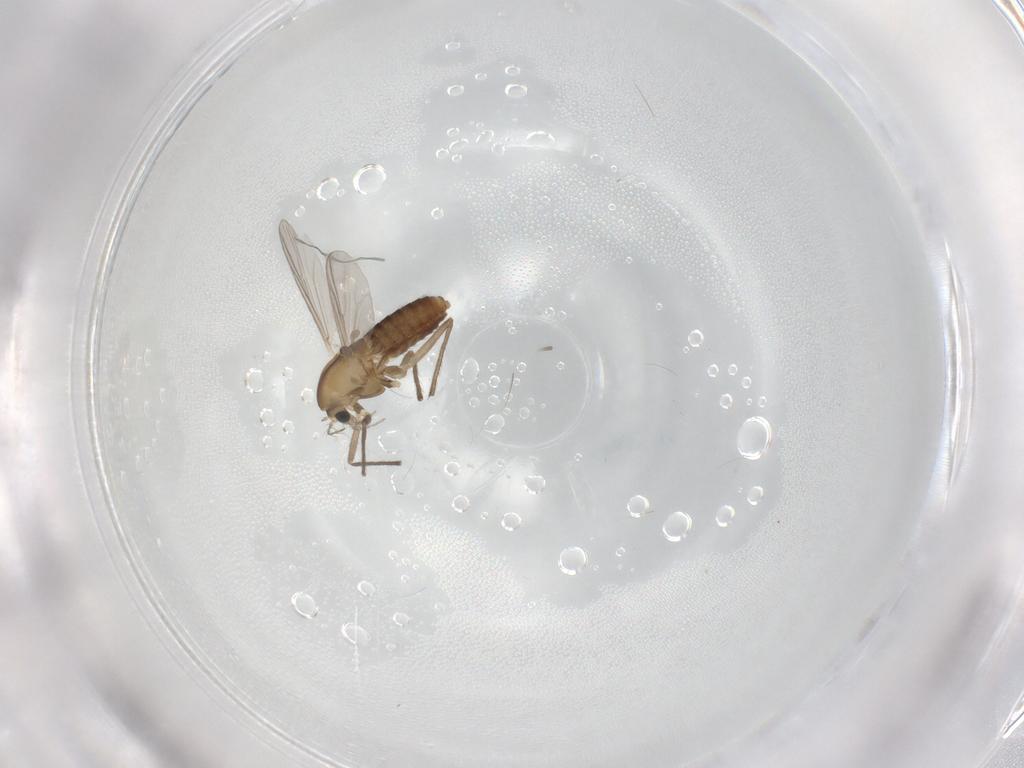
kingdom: Animalia
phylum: Arthropoda
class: Insecta
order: Diptera
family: Chironomidae
